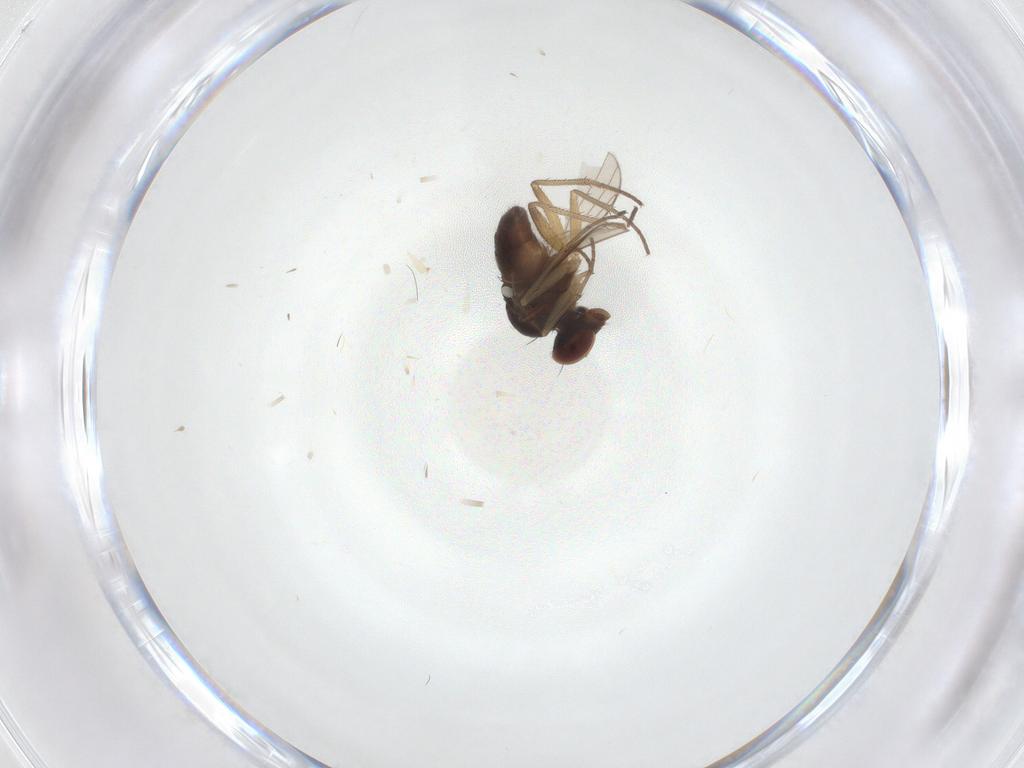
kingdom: Animalia
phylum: Arthropoda
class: Insecta
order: Diptera
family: Dolichopodidae
